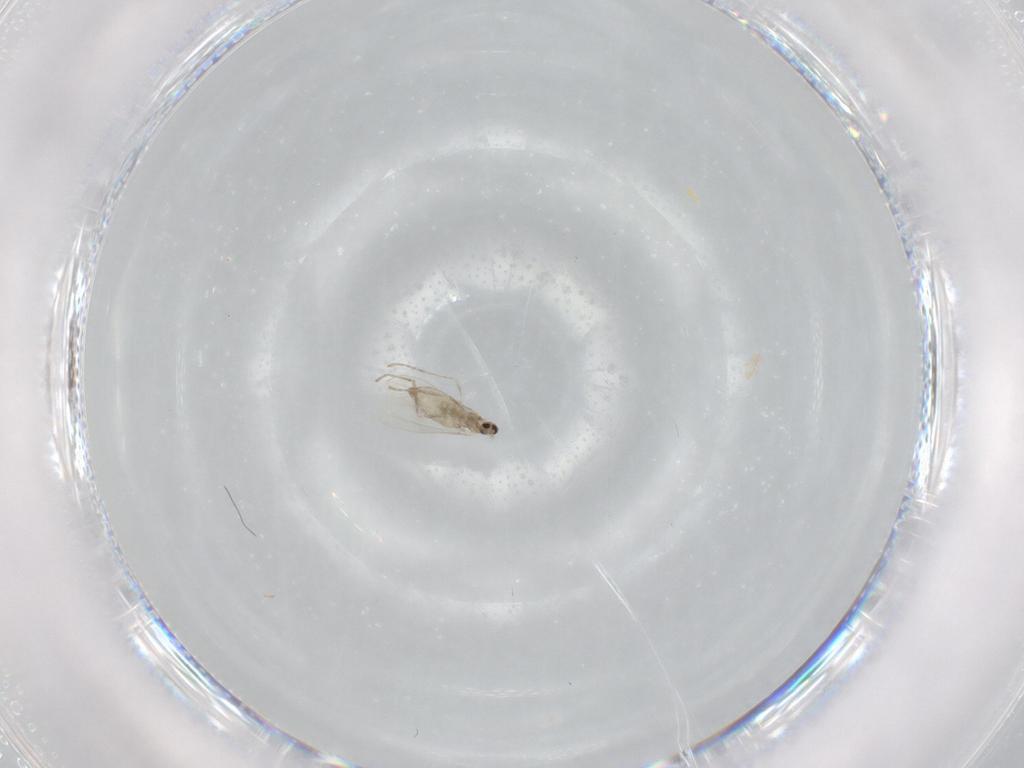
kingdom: Animalia
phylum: Arthropoda
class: Insecta
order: Diptera
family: Cecidomyiidae
